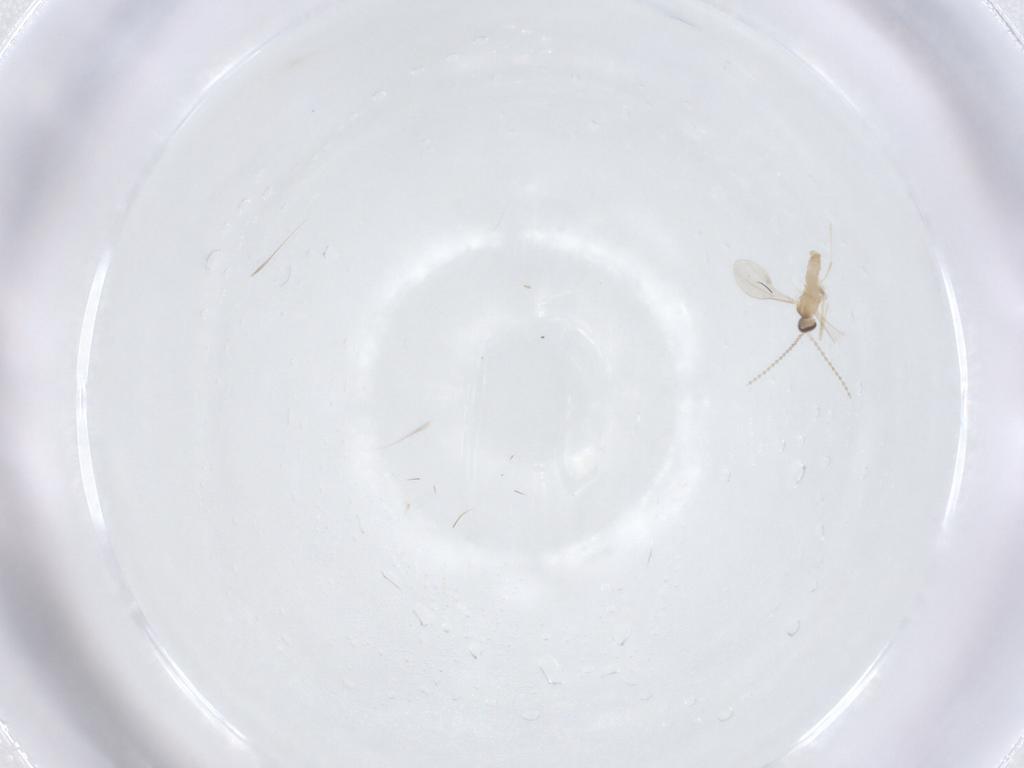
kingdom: Animalia
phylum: Arthropoda
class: Insecta
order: Diptera
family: Cecidomyiidae
